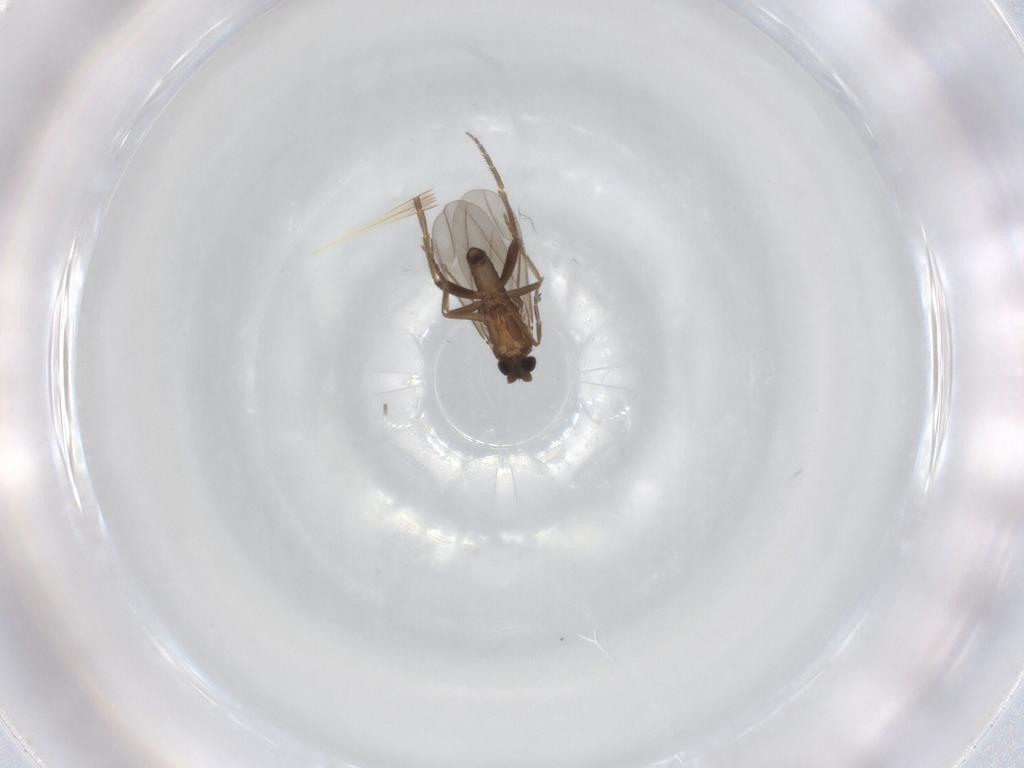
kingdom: Animalia
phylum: Arthropoda
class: Insecta
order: Diptera
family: Phoridae
